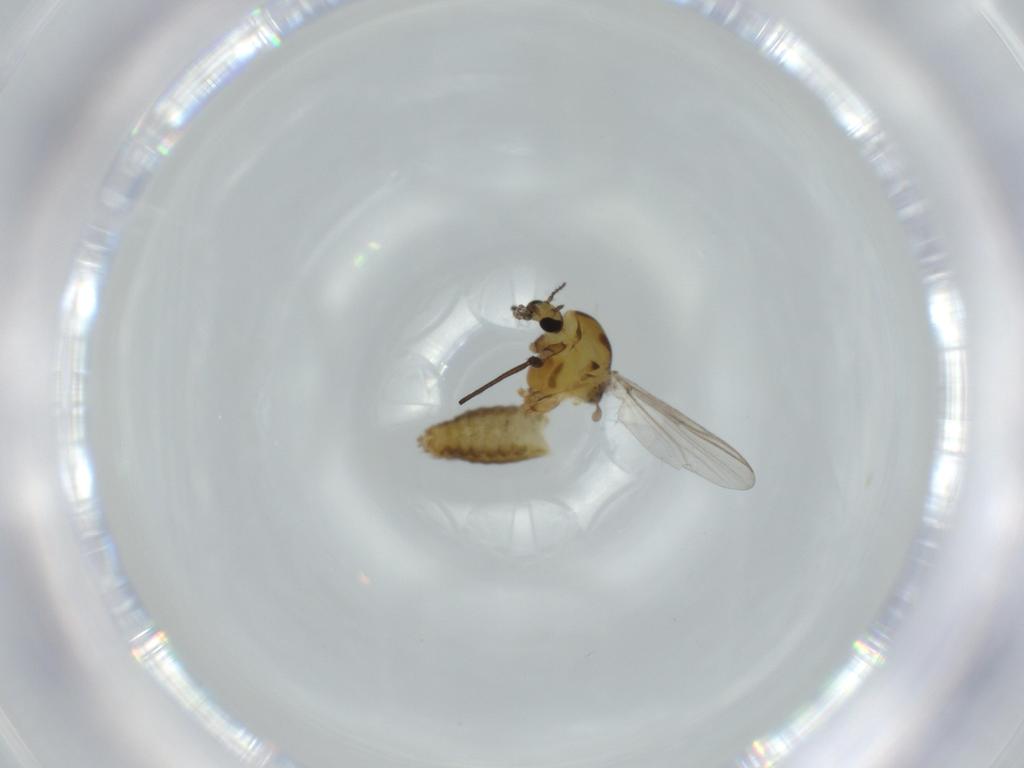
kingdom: Animalia
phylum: Arthropoda
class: Insecta
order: Diptera
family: Chironomidae
